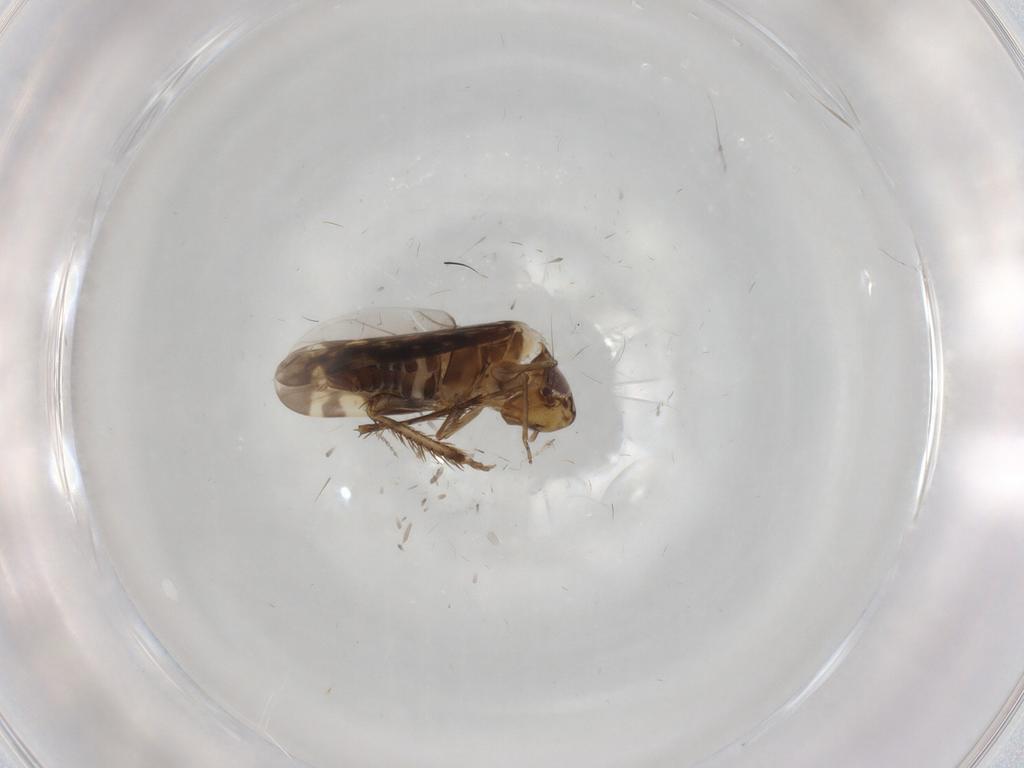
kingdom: Animalia
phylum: Arthropoda
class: Insecta
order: Hemiptera
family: Cicadellidae
